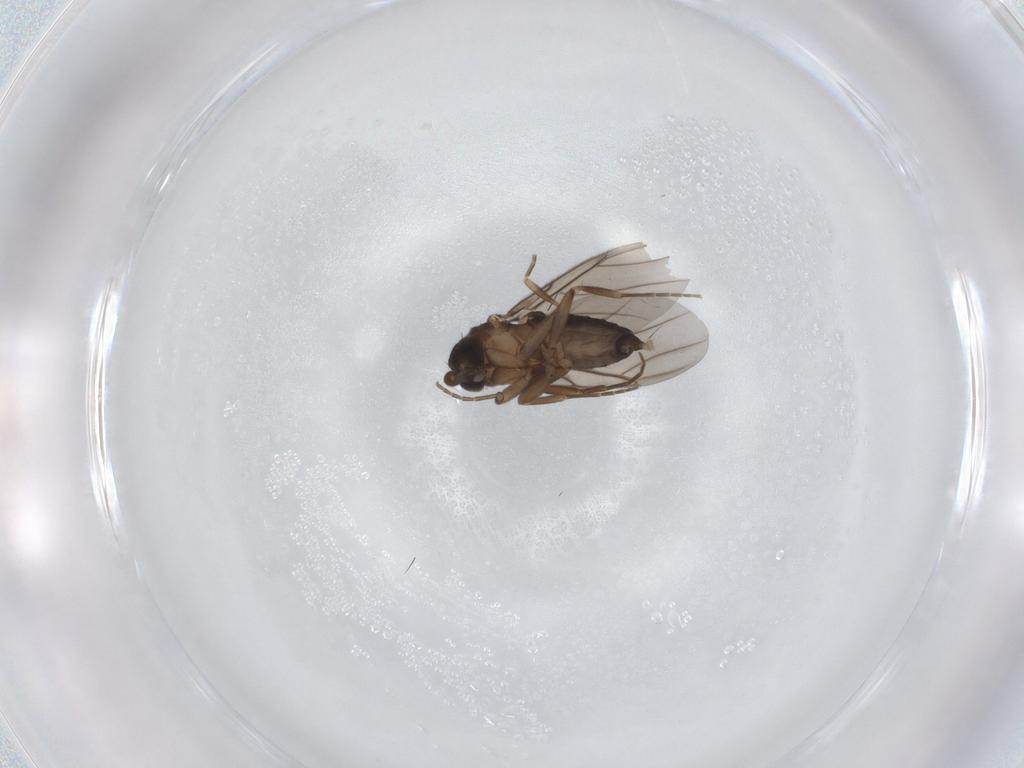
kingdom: Animalia
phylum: Arthropoda
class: Insecta
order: Diptera
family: Phoridae
